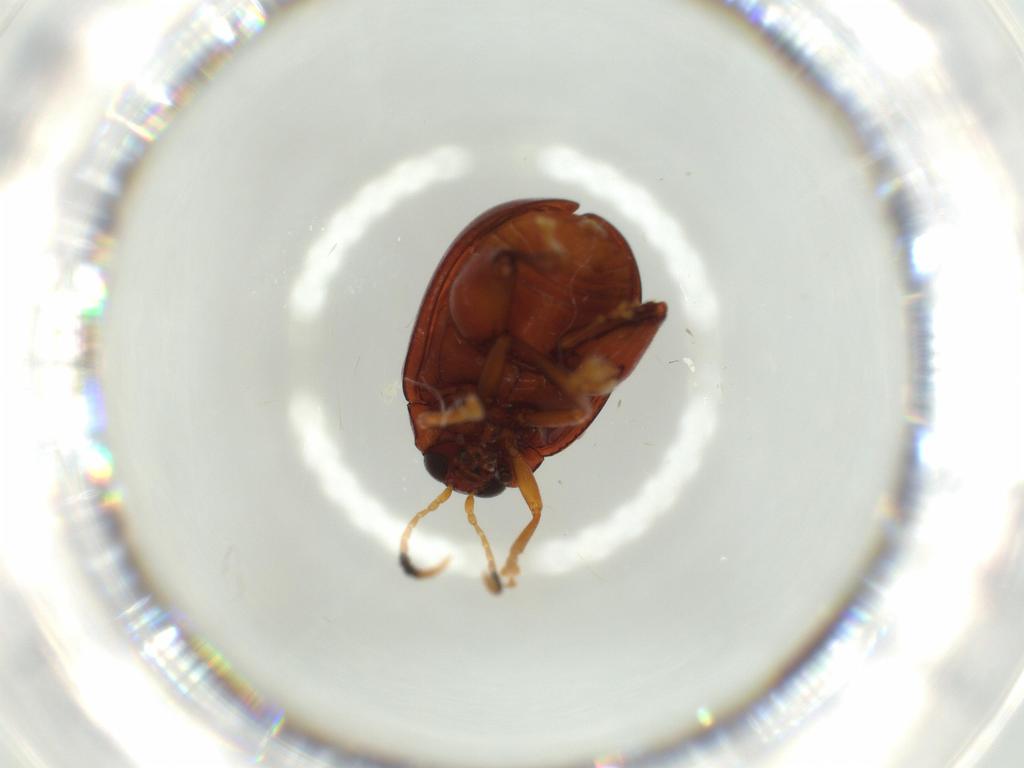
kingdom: Animalia
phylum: Arthropoda
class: Insecta
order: Coleoptera
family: Chrysomelidae
